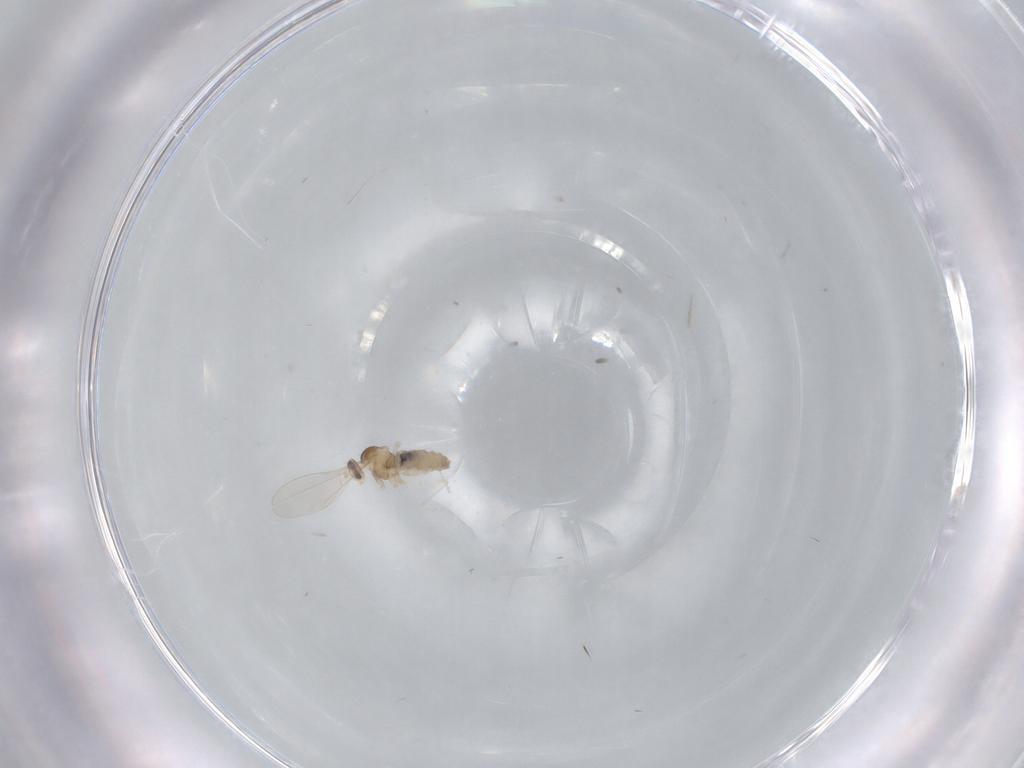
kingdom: Animalia
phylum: Arthropoda
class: Insecta
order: Diptera
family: Cecidomyiidae
